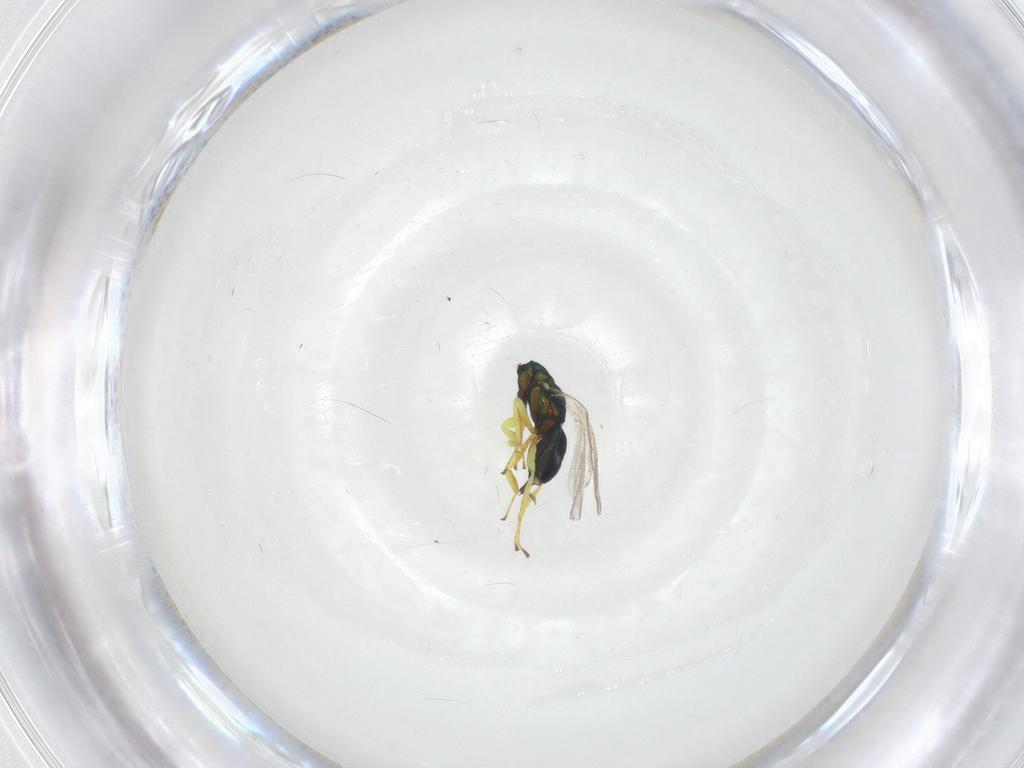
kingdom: Animalia
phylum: Arthropoda
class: Insecta
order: Hymenoptera
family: Pteromalidae
